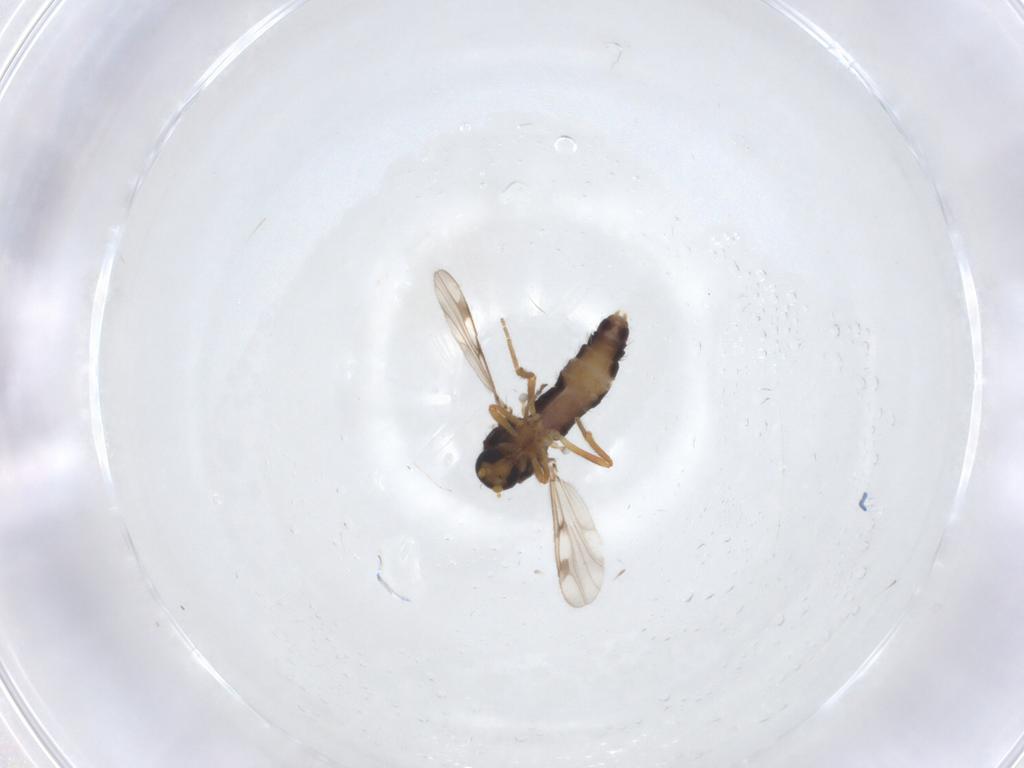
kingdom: Animalia
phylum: Arthropoda
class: Insecta
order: Diptera
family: Ceratopogonidae
